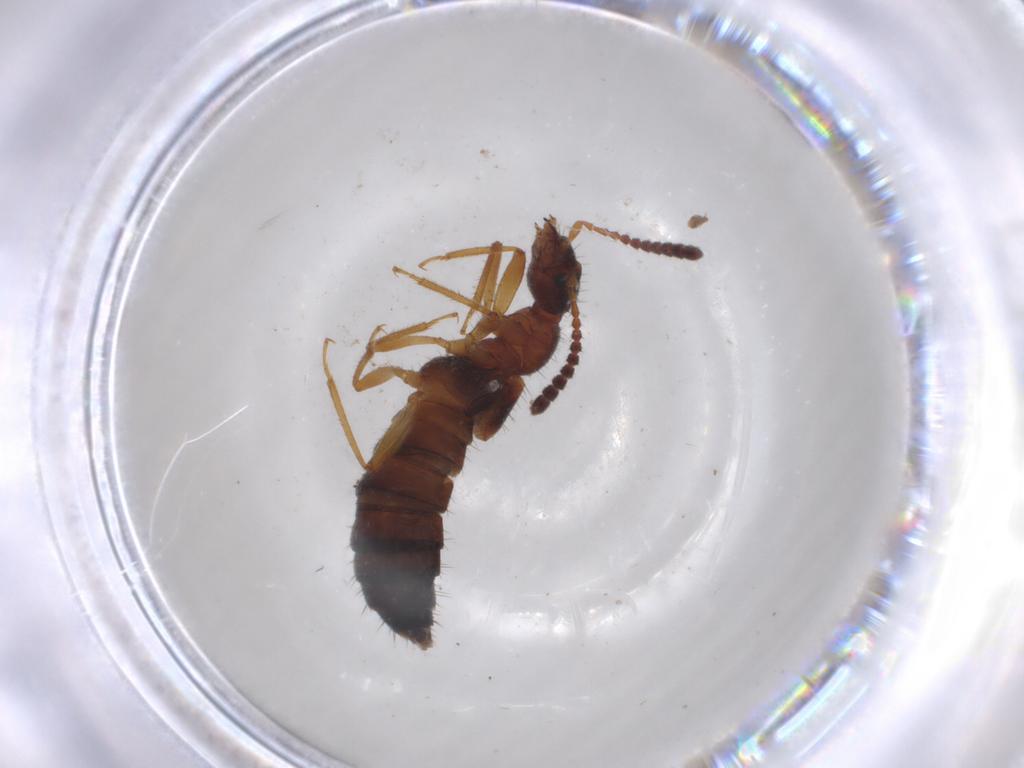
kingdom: Animalia
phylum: Arthropoda
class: Insecta
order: Coleoptera
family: Staphylinidae
